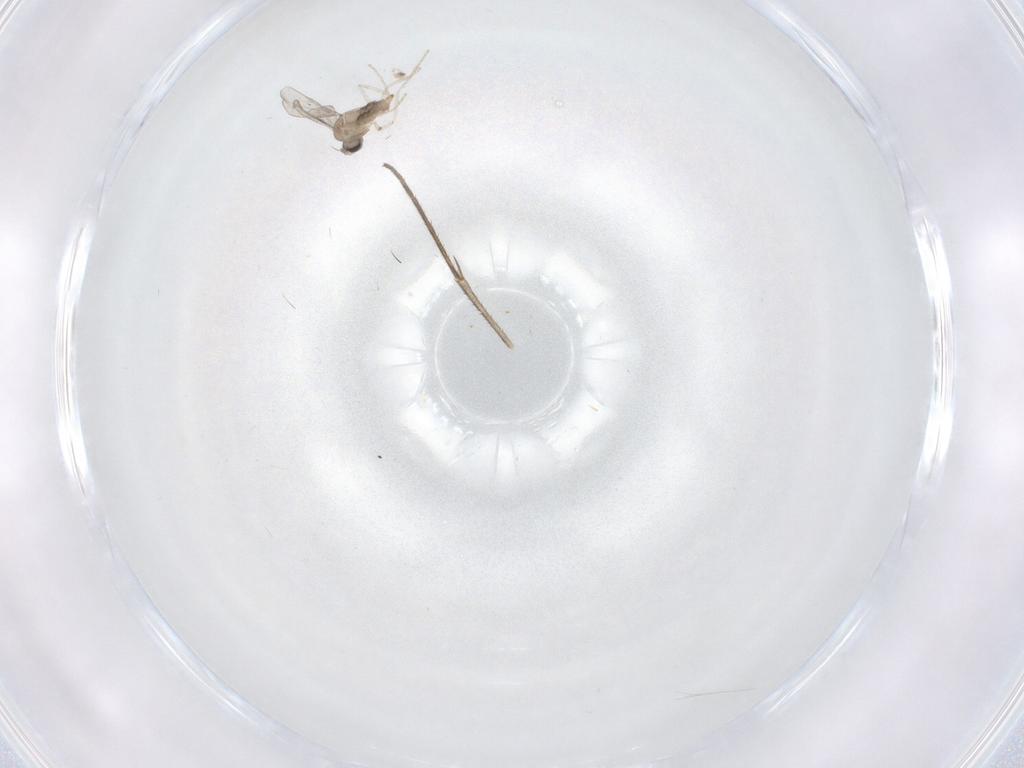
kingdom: Animalia
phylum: Arthropoda
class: Insecta
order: Diptera
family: Cecidomyiidae
